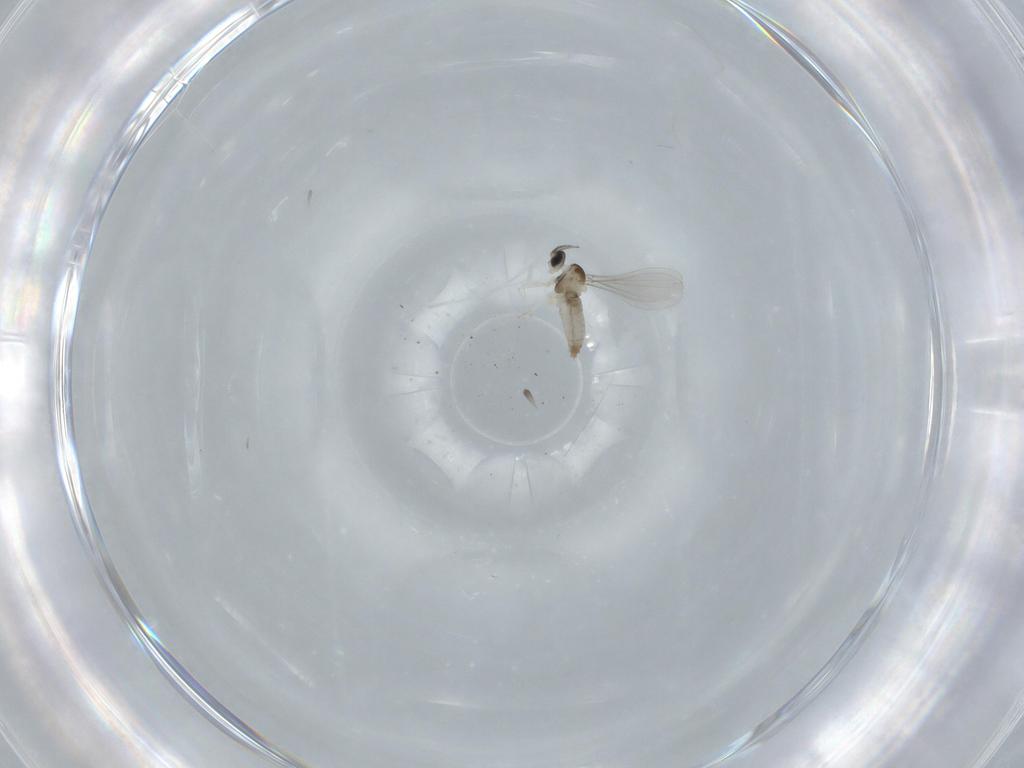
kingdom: Animalia
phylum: Arthropoda
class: Insecta
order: Diptera
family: Sciaridae
